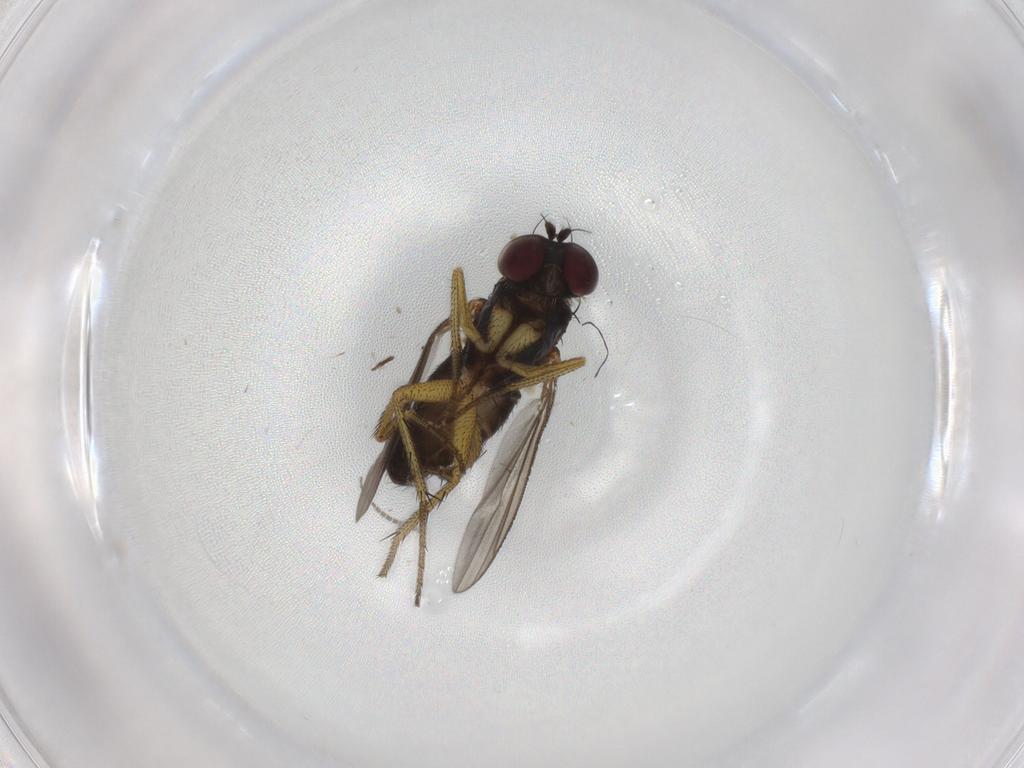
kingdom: Animalia
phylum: Arthropoda
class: Insecta
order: Diptera
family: Dolichopodidae
